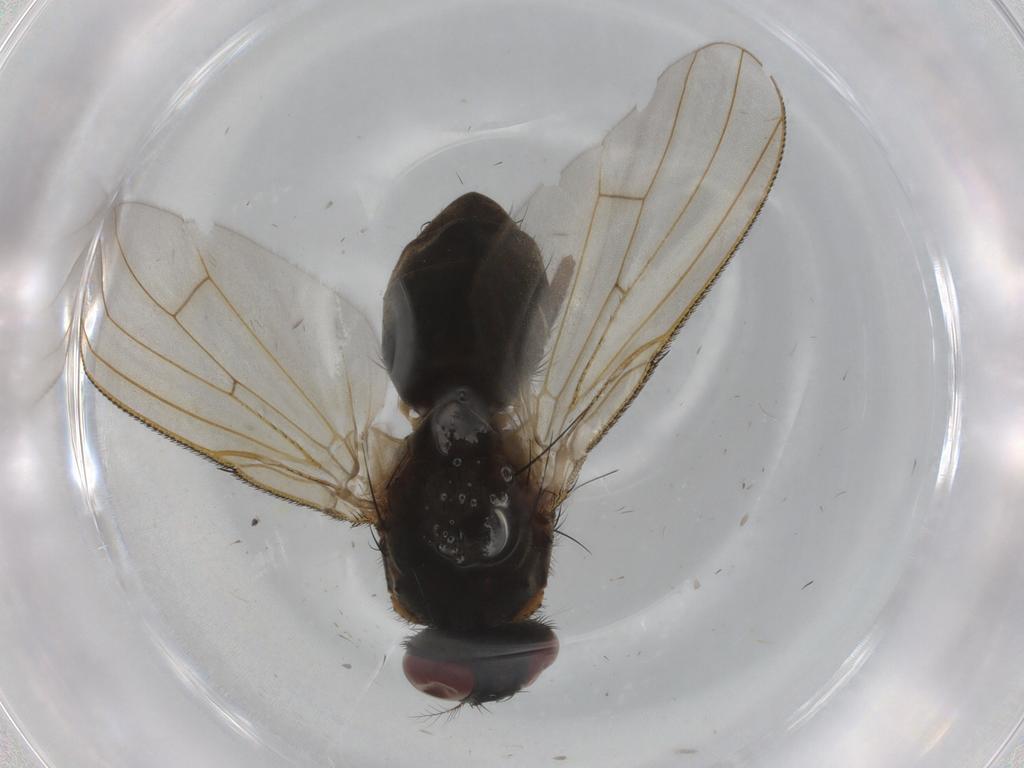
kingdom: Animalia
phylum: Arthropoda
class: Insecta
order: Diptera
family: Muscidae
